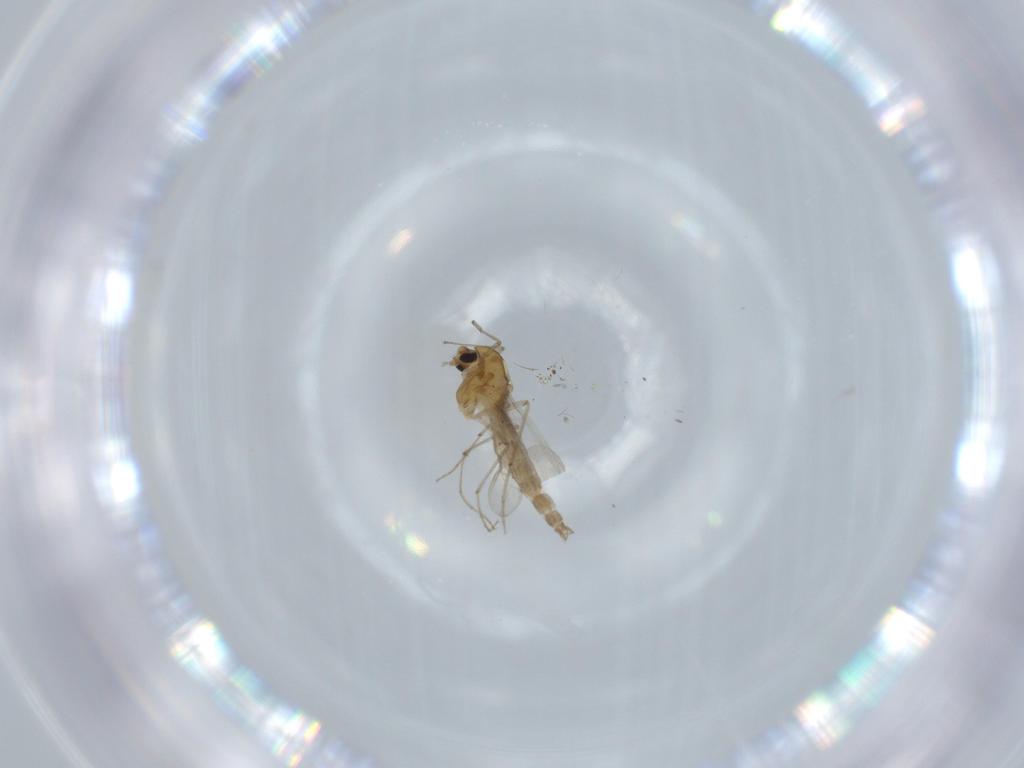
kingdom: Animalia
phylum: Arthropoda
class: Insecta
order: Diptera
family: Chironomidae
